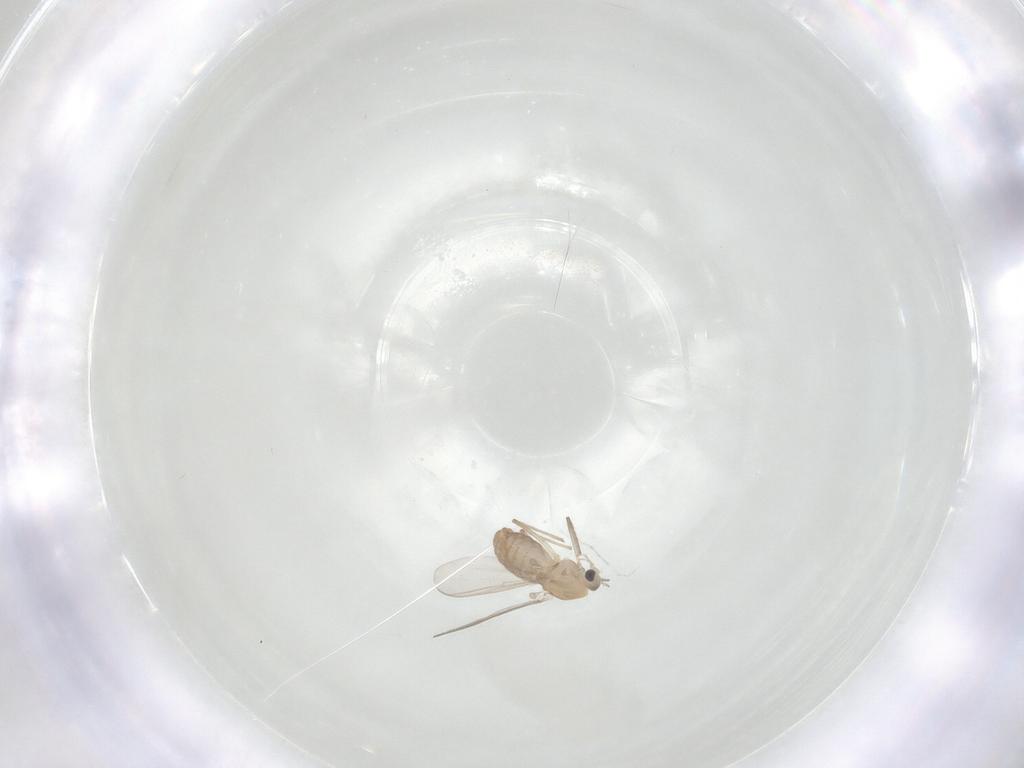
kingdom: Animalia
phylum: Arthropoda
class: Insecta
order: Diptera
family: Chironomidae
